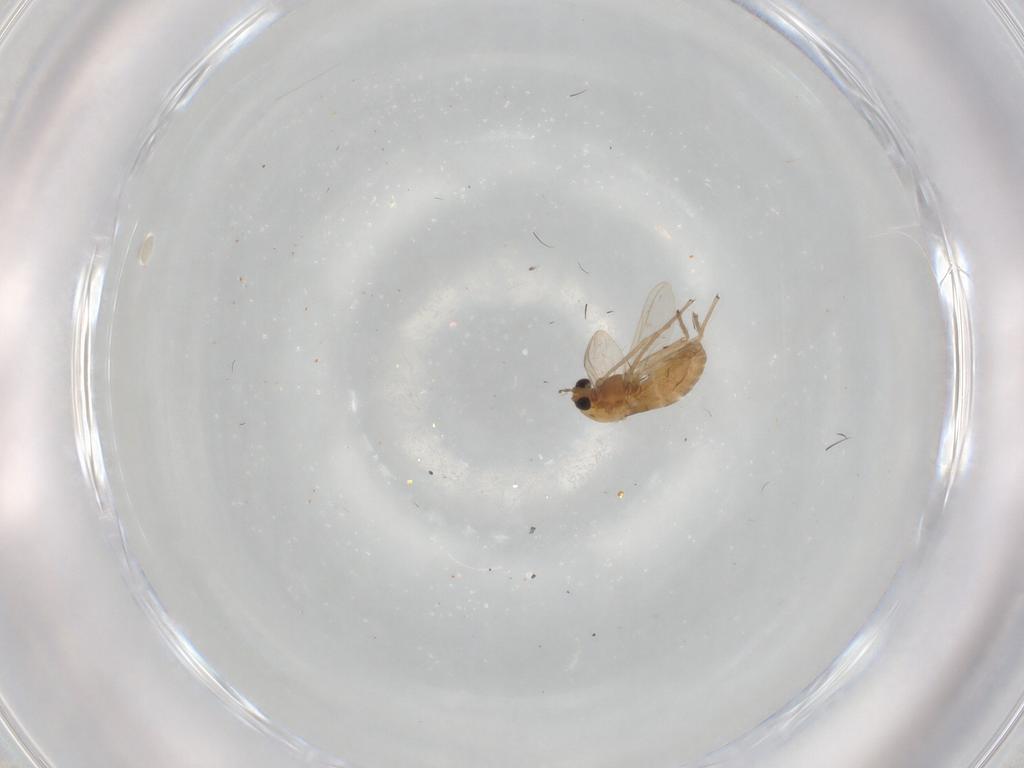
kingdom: Animalia
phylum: Arthropoda
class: Insecta
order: Diptera
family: Chironomidae
